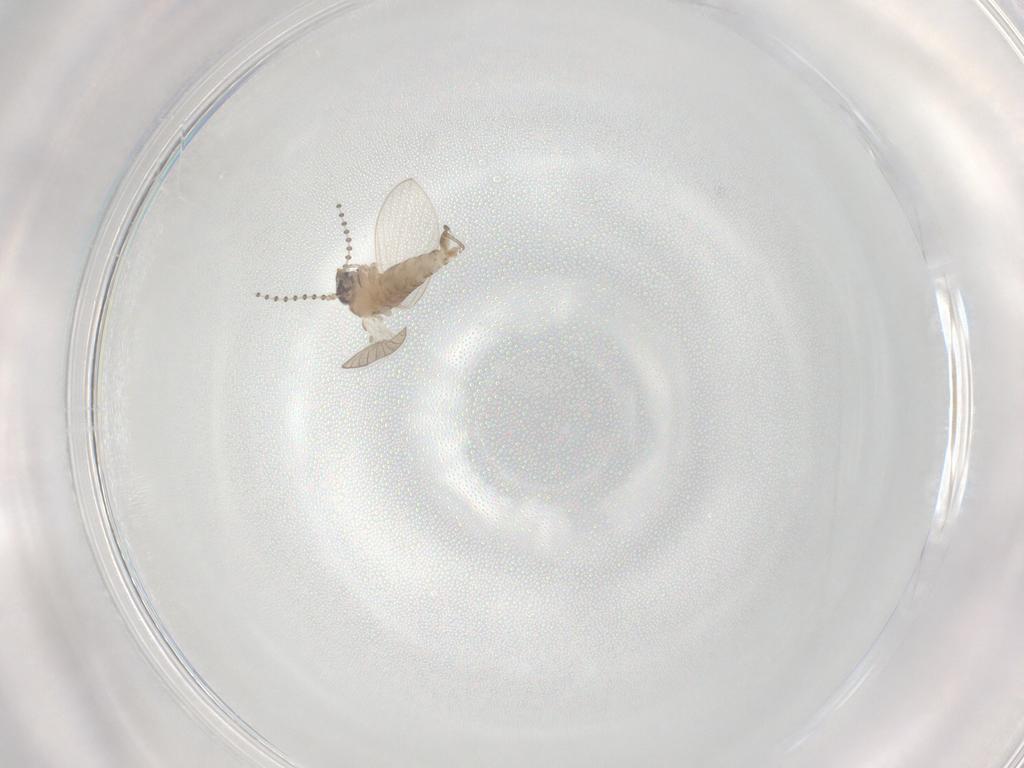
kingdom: Animalia
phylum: Arthropoda
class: Insecta
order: Diptera
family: Psychodidae
